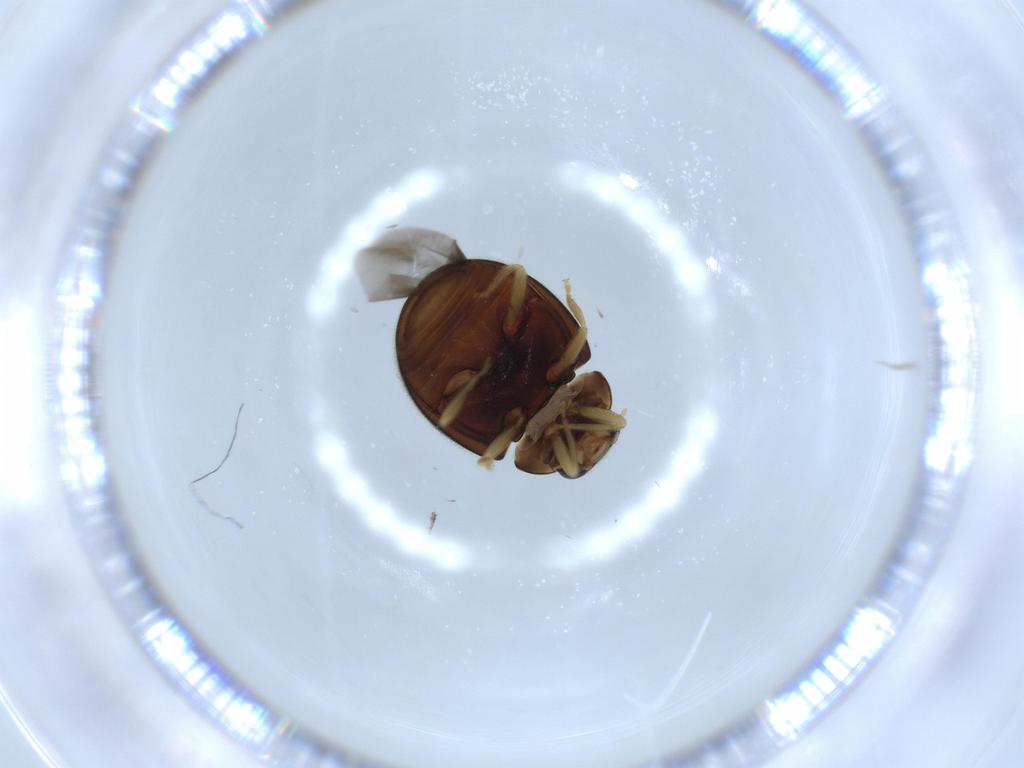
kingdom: Animalia
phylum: Arthropoda
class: Insecta
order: Coleoptera
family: Coccinellidae
